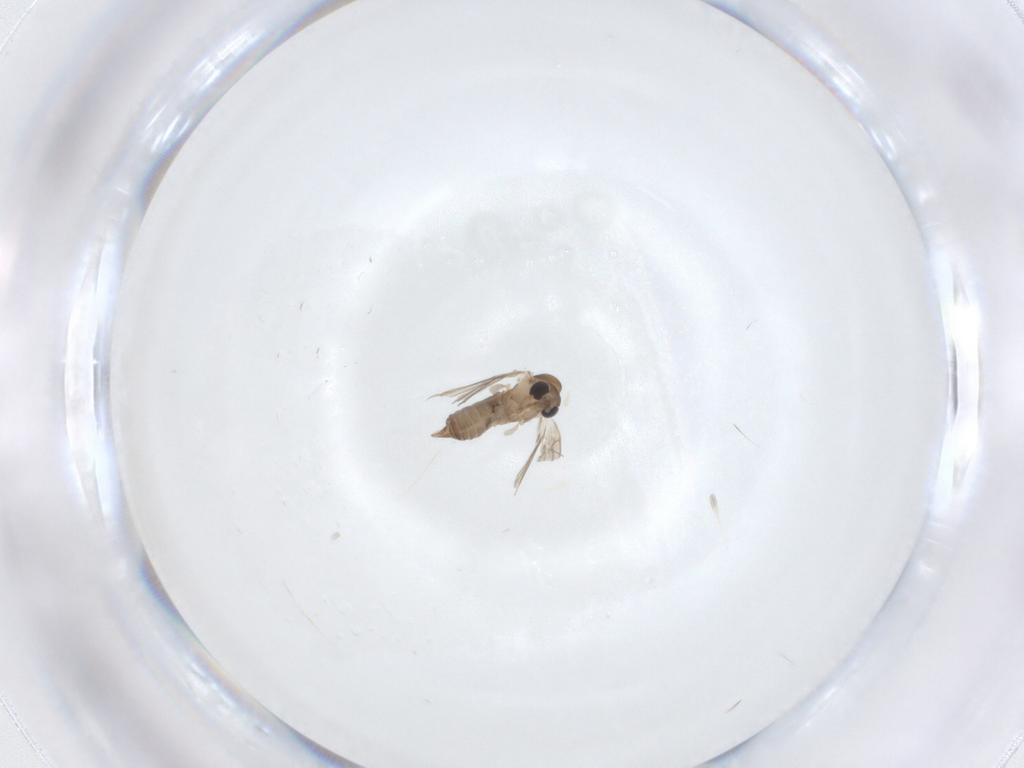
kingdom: Animalia
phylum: Arthropoda
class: Insecta
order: Diptera
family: Psychodidae
